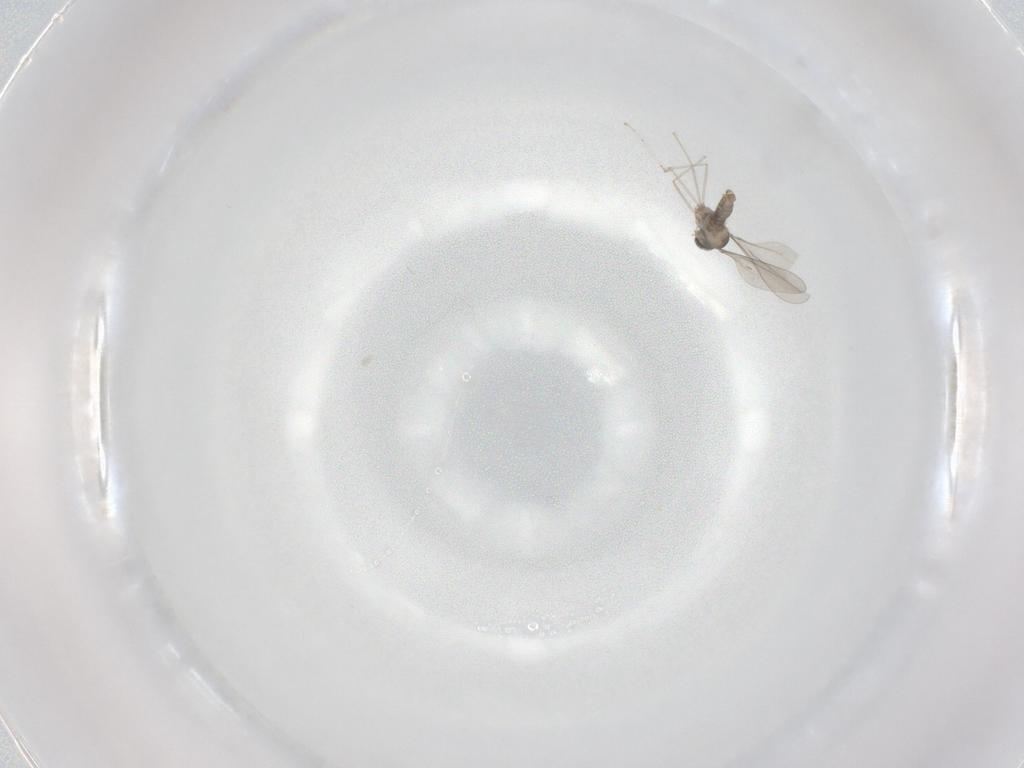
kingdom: Animalia
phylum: Arthropoda
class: Insecta
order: Diptera
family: Cecidomyiidae
